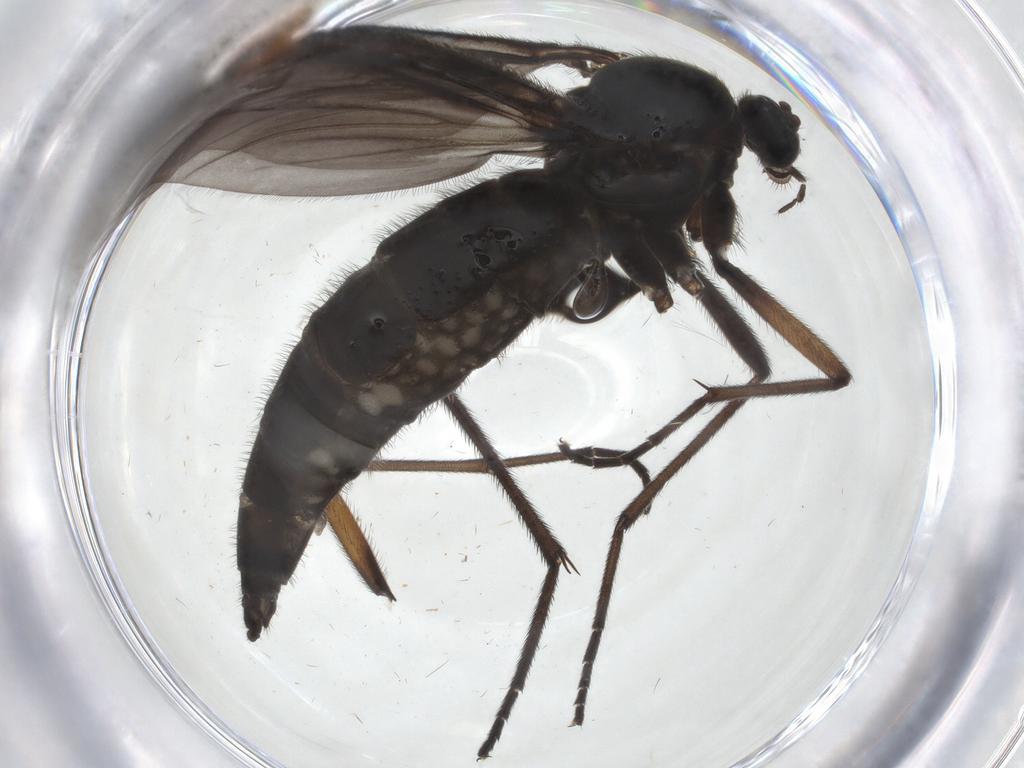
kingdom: Animalia
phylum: Arthropoda
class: Insecta
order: Diptera
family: Sciaridae
